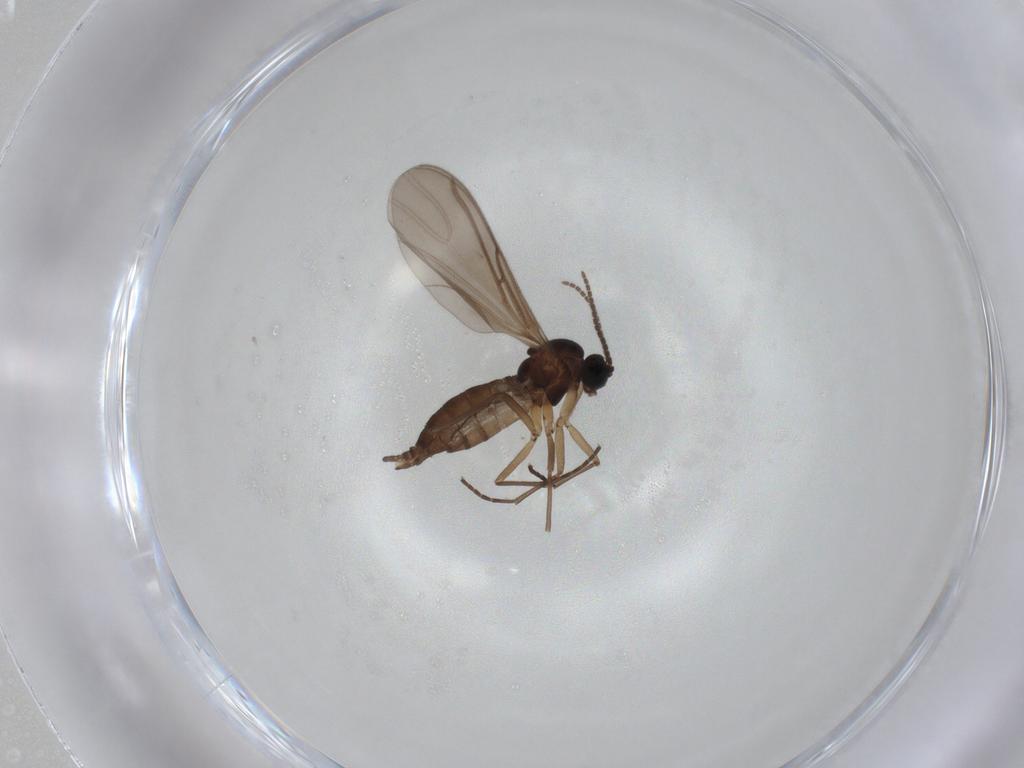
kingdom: Animalia
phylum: Arthropoda
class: Insecta
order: Diptera
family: Sciaridae
